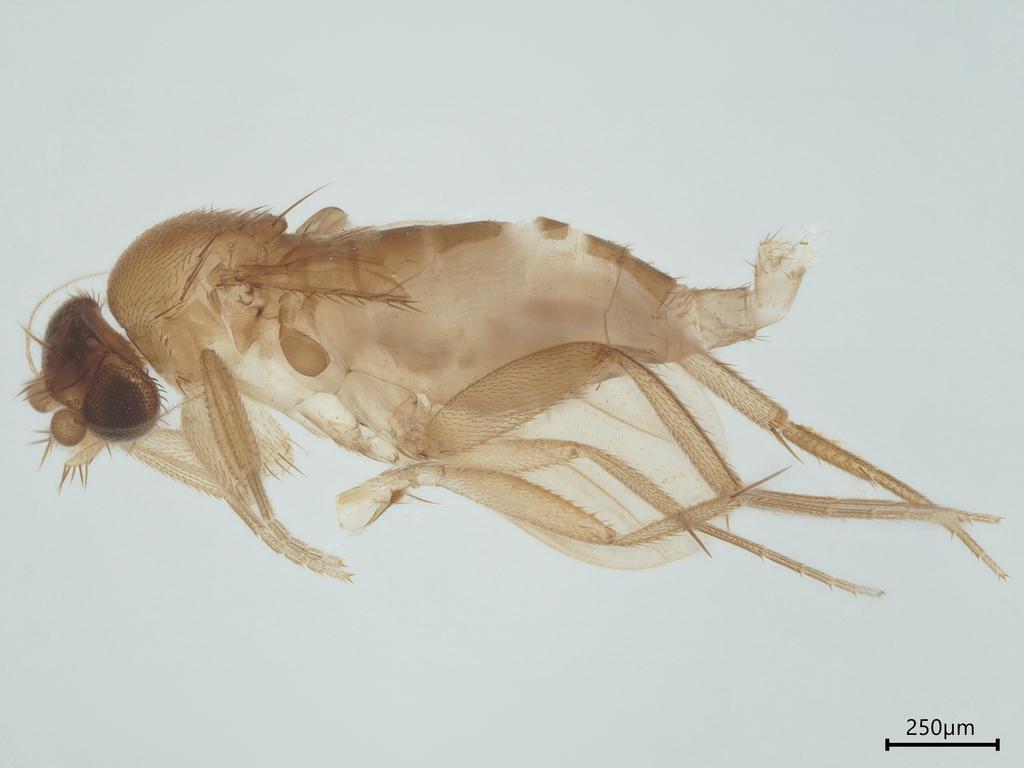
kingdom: Animalia
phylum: Arthropoda
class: Insecta
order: Diptera
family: Phoridae
